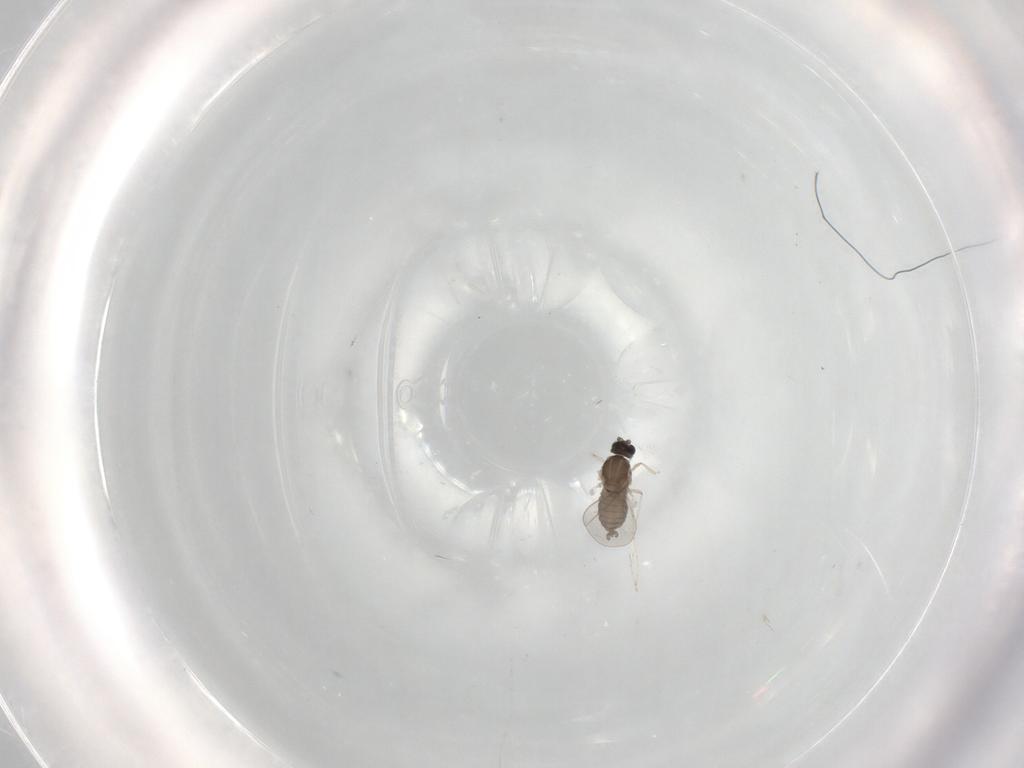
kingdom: Animalia
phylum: Arthropoda
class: Insecta
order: Diptera
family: Cecidomyiidae
